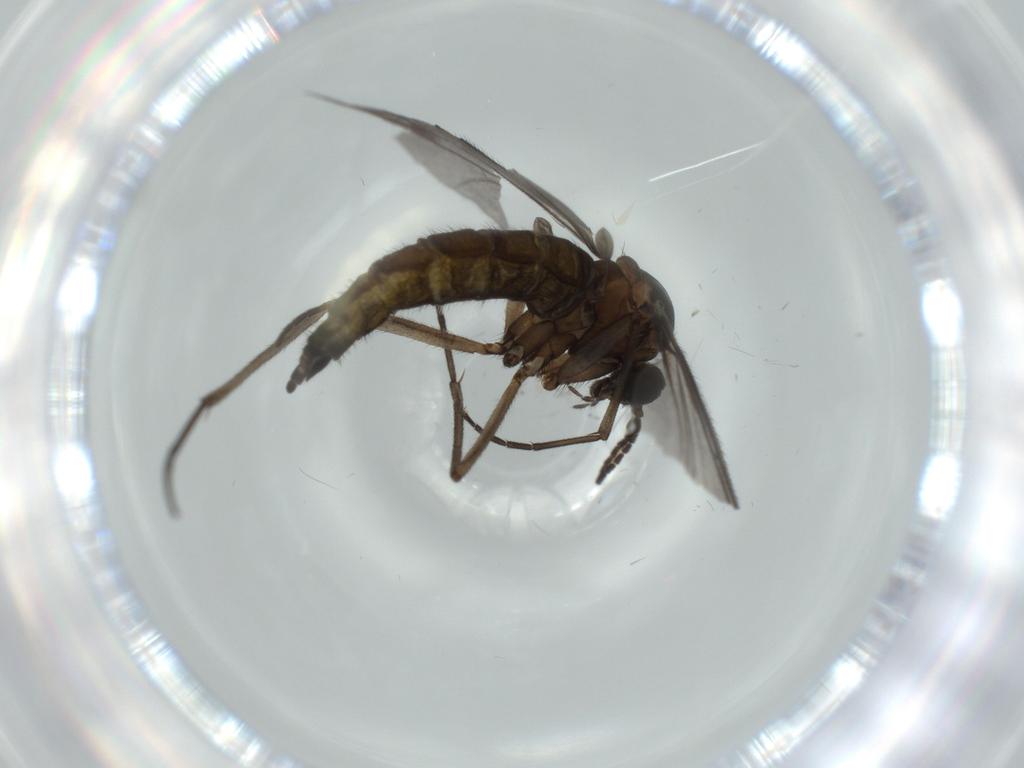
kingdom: Animalia
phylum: Arthropoda
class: Insecta
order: Diptera
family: Sciaridae
